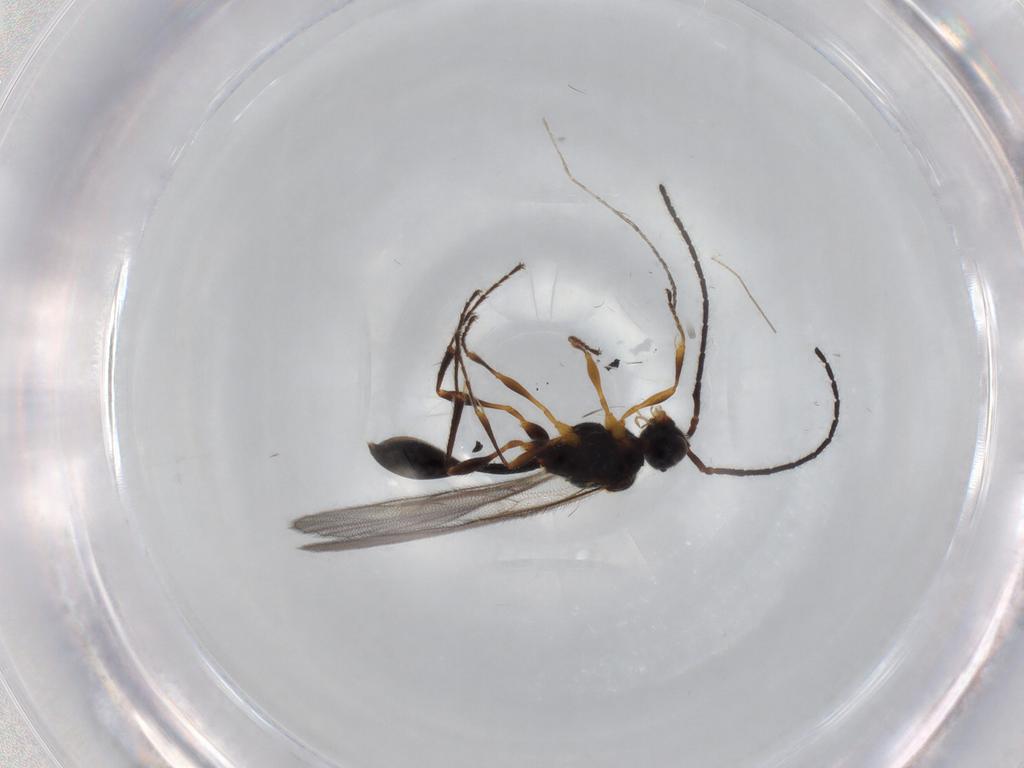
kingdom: Animalia
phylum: Arthropoda
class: Insecta
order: Hymenoptera
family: Diapriidae
